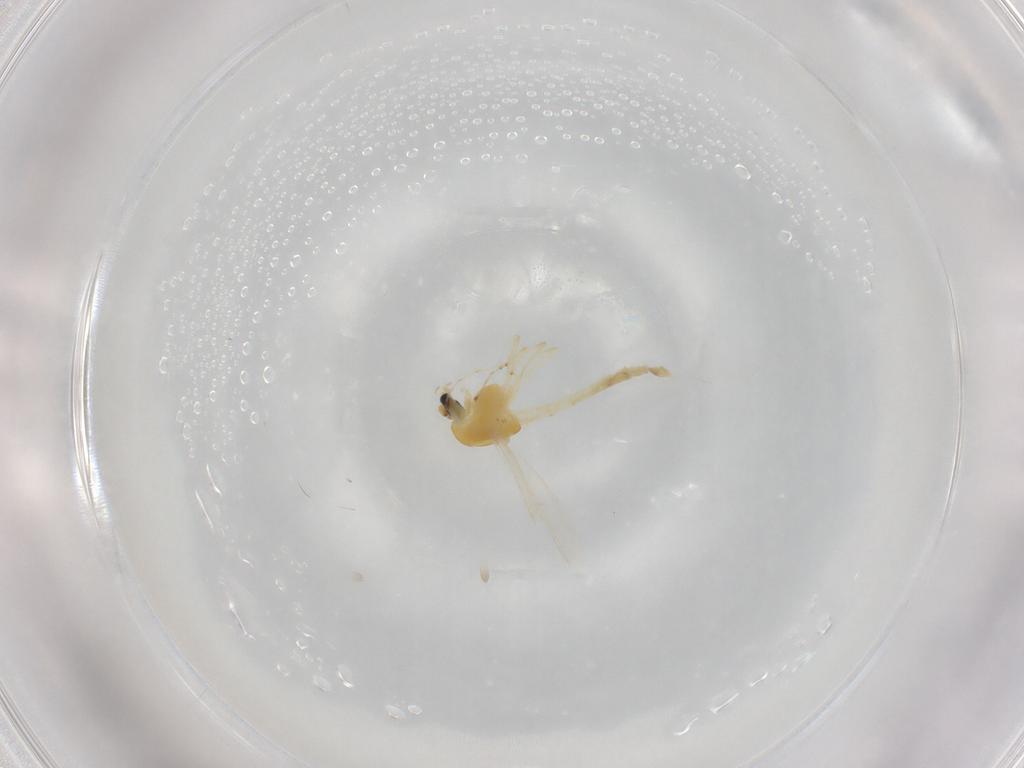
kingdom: Animalia
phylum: Arthropoda
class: Insecta
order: Diptera
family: Chironomidae
